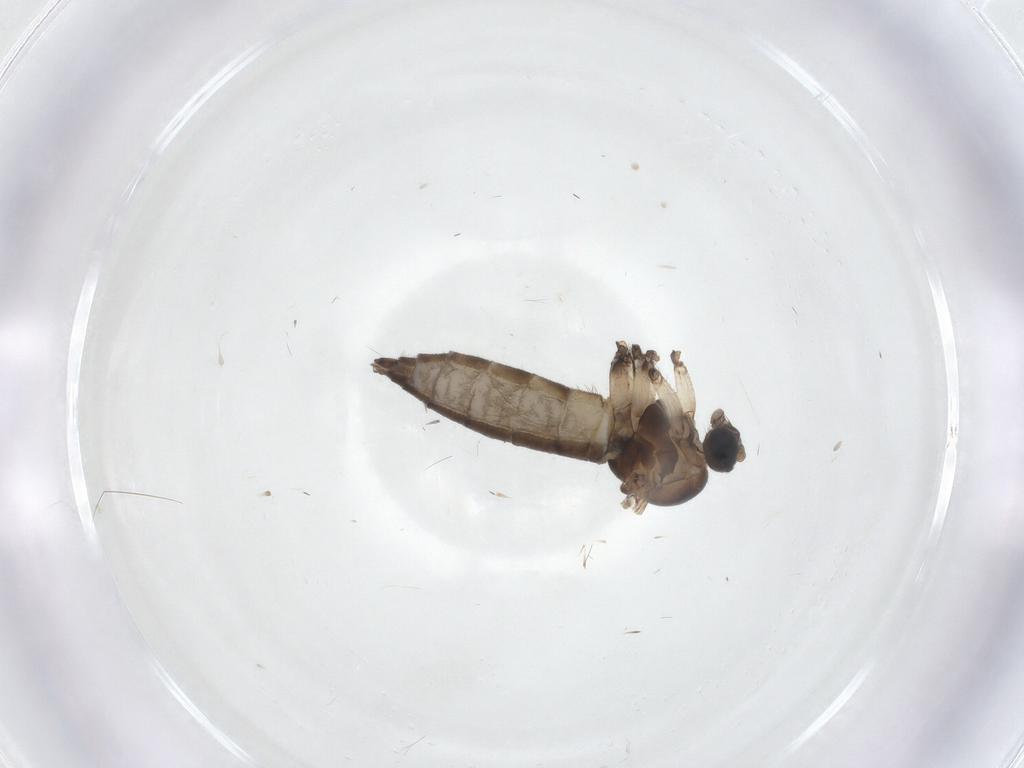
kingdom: Animalia
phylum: Arthropoda
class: Insecta
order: Diptera
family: Sciaridae
